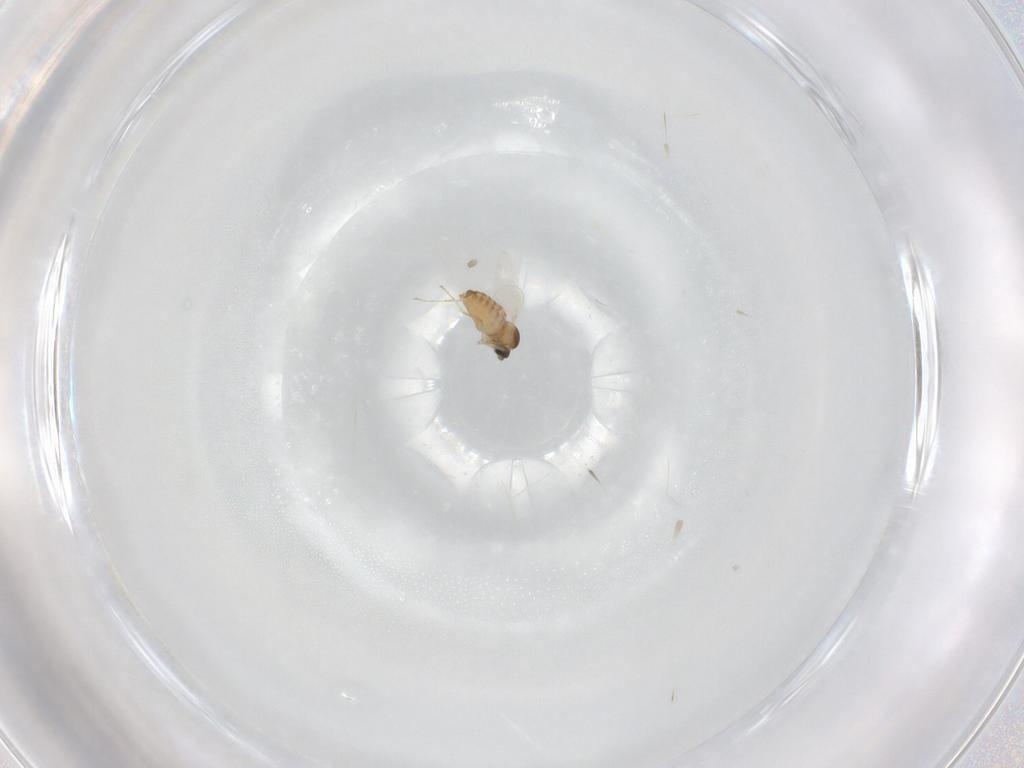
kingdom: Animalia
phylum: Arthropoda
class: Insecta
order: Diptera
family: Cecidomyiidae
